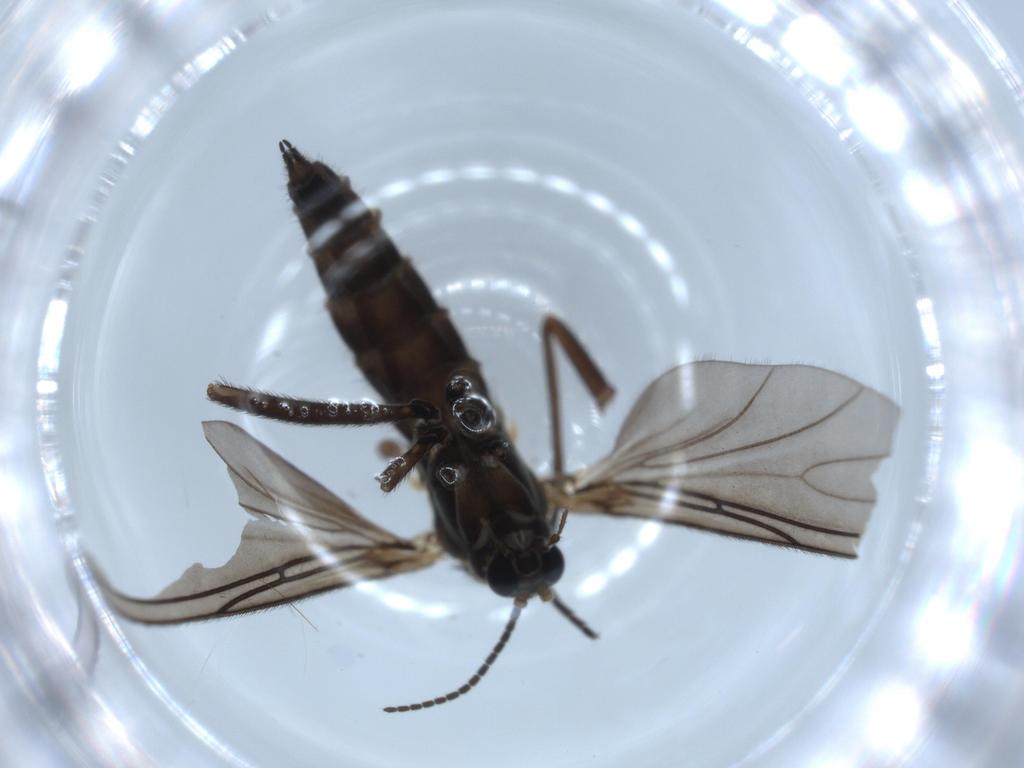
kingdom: Animalia
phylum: Arthropoda
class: Insecta
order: Diptera
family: Sciaridae
